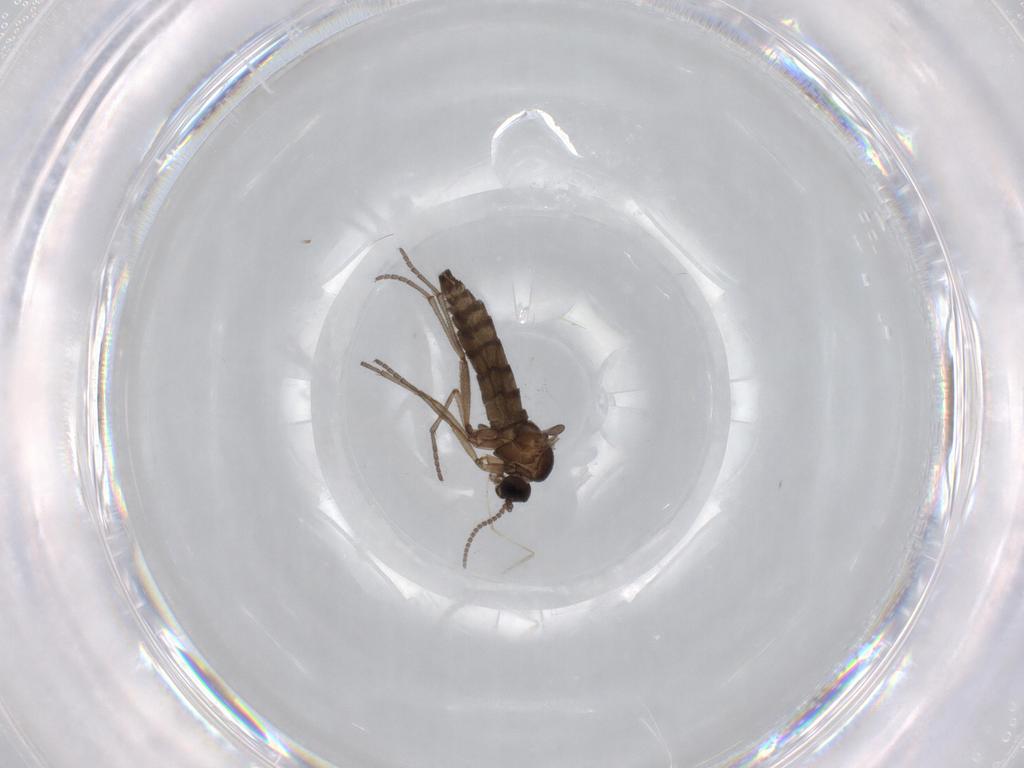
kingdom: Animalia
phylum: Arthropoda
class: Insecta
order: Diptera
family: Sciaridae
